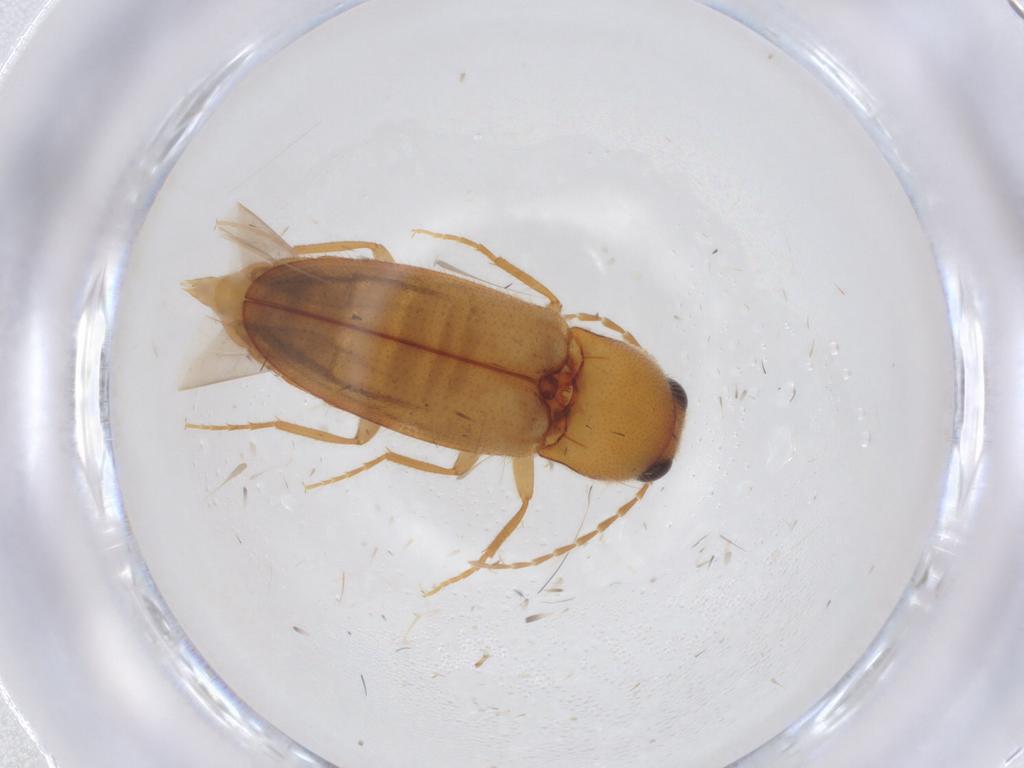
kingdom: Animalia
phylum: Arthropoda
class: Insecta
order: Coleoptera
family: Elateridae
